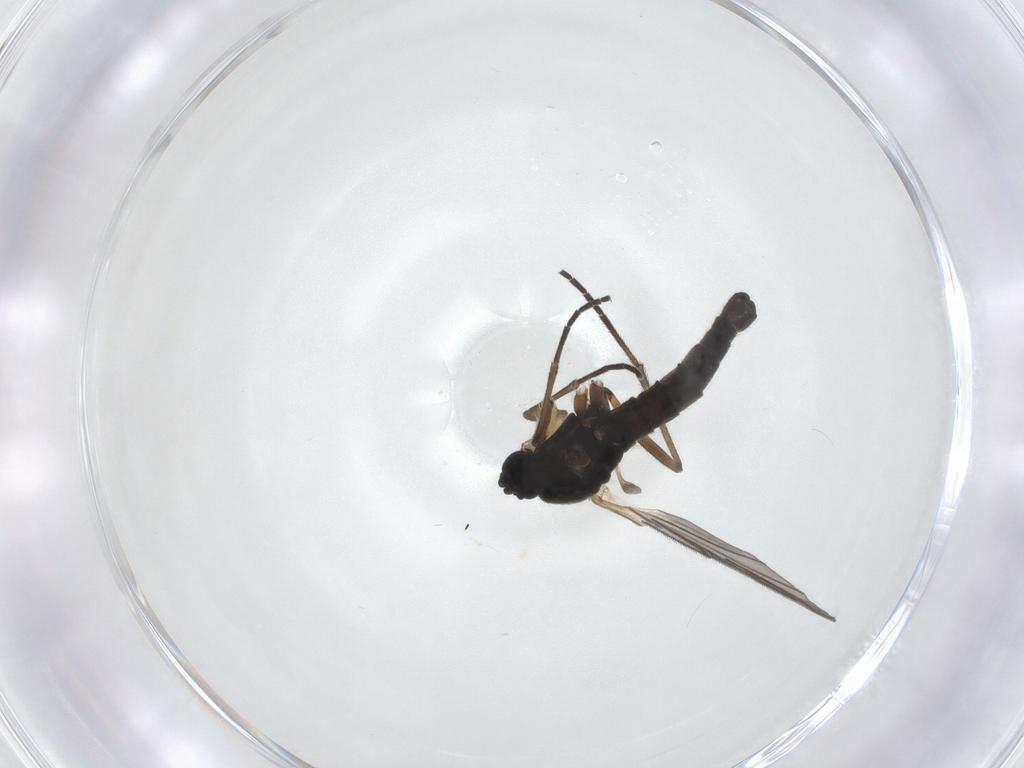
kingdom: Animalia
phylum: Arthropoda
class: Insecta
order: Diptera
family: Sciaridae
